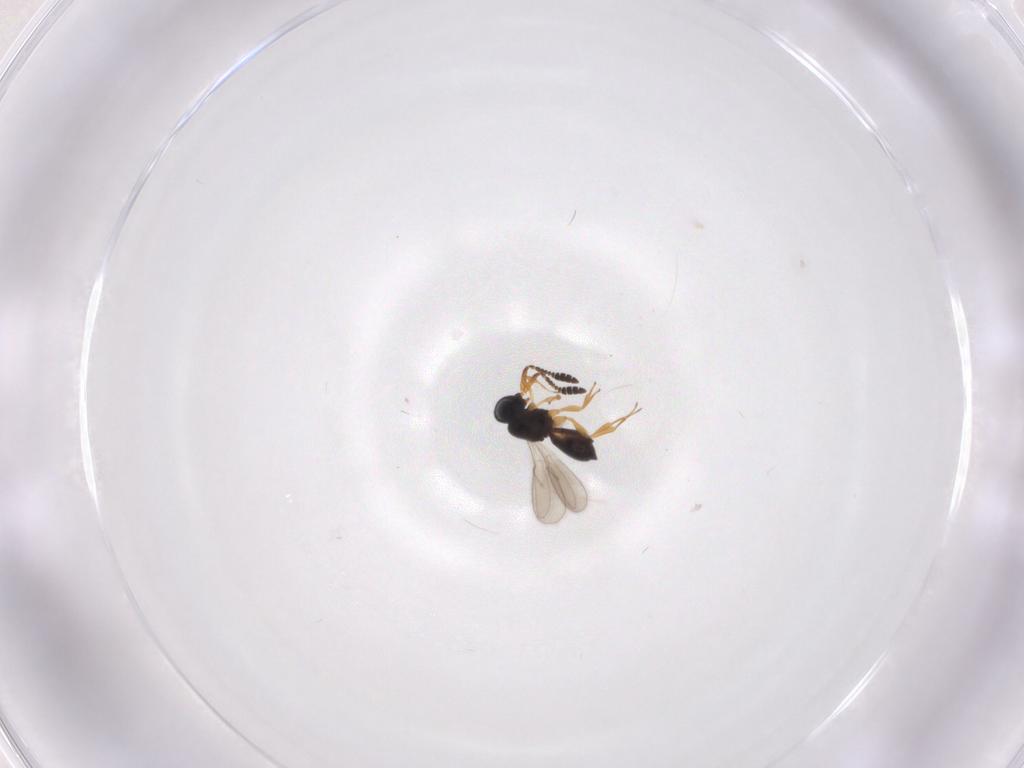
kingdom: Animalia
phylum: Arthropoda
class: Insecta
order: Hymenoptera
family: Scelionidae
